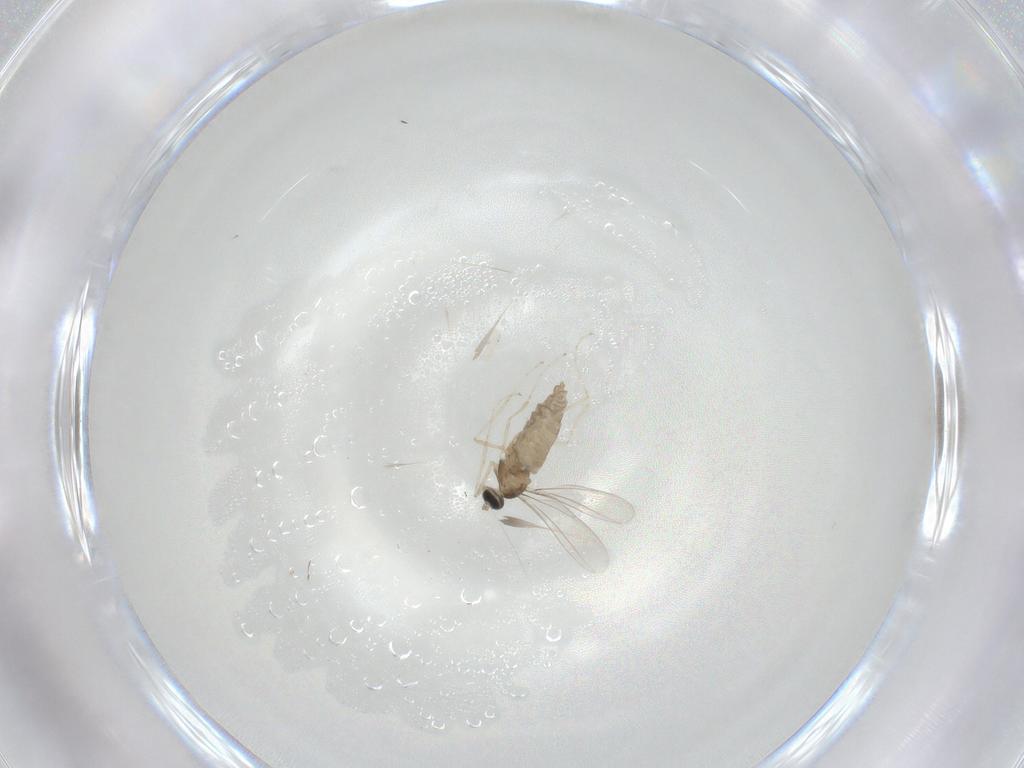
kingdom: Animalia
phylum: Arthropoda
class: Insecta
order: Diptera
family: Cecidomyiidae
